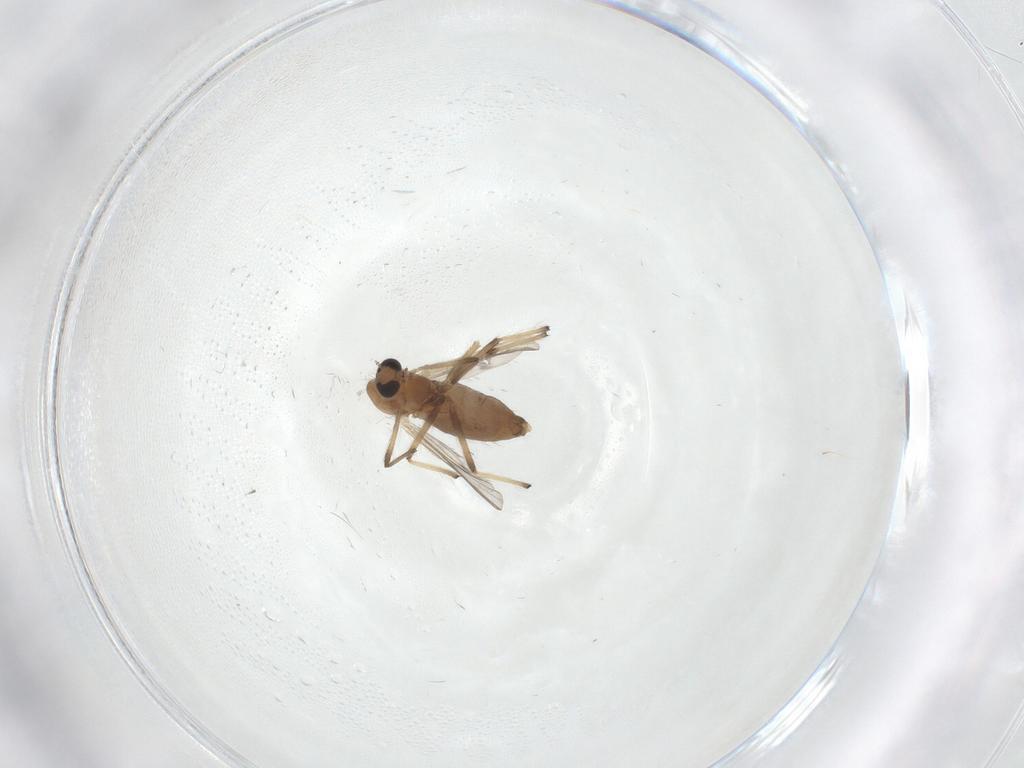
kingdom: Animalia
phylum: Arthropoda
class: Insecta
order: Diptera
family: Chironomidae
